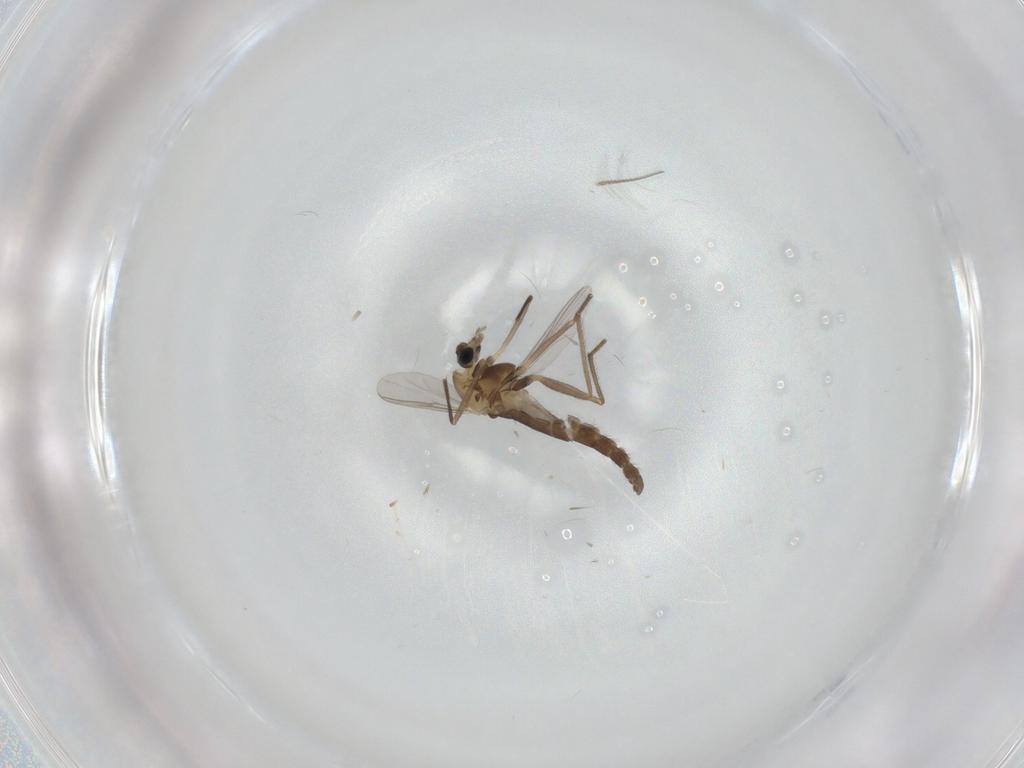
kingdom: Animalia
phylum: Arthropoda
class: Insecta
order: Diptera
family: Chironomidae
